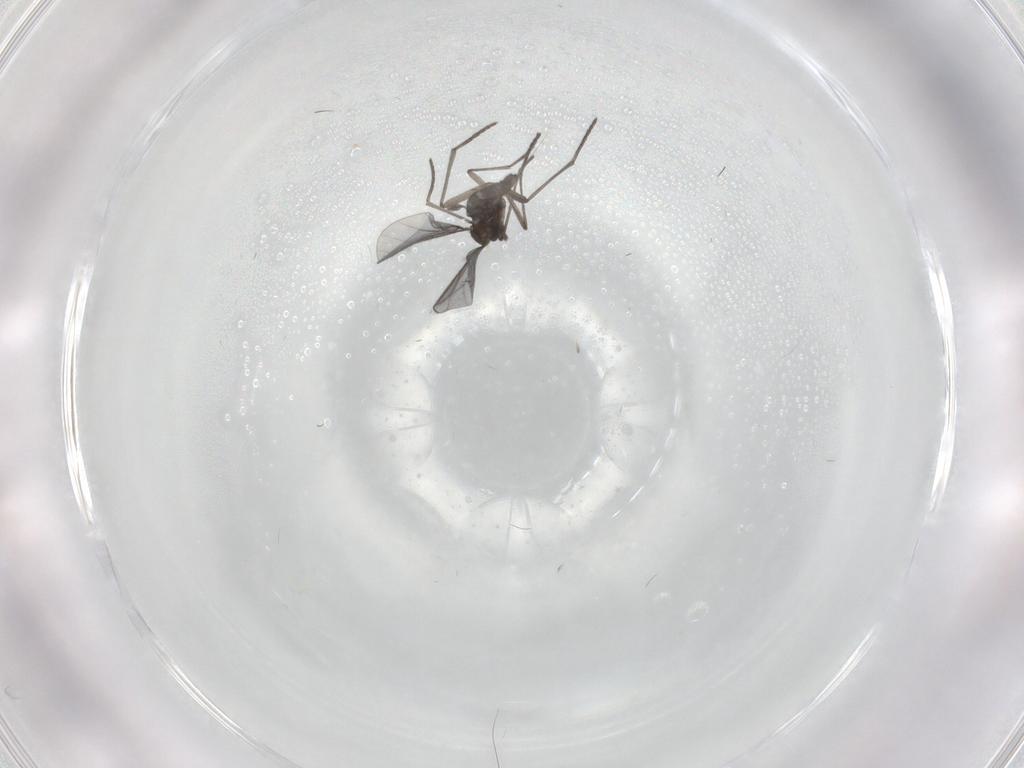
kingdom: Animalia
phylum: Arthropoda
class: Insecta
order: Diptera
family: Sciaridae
